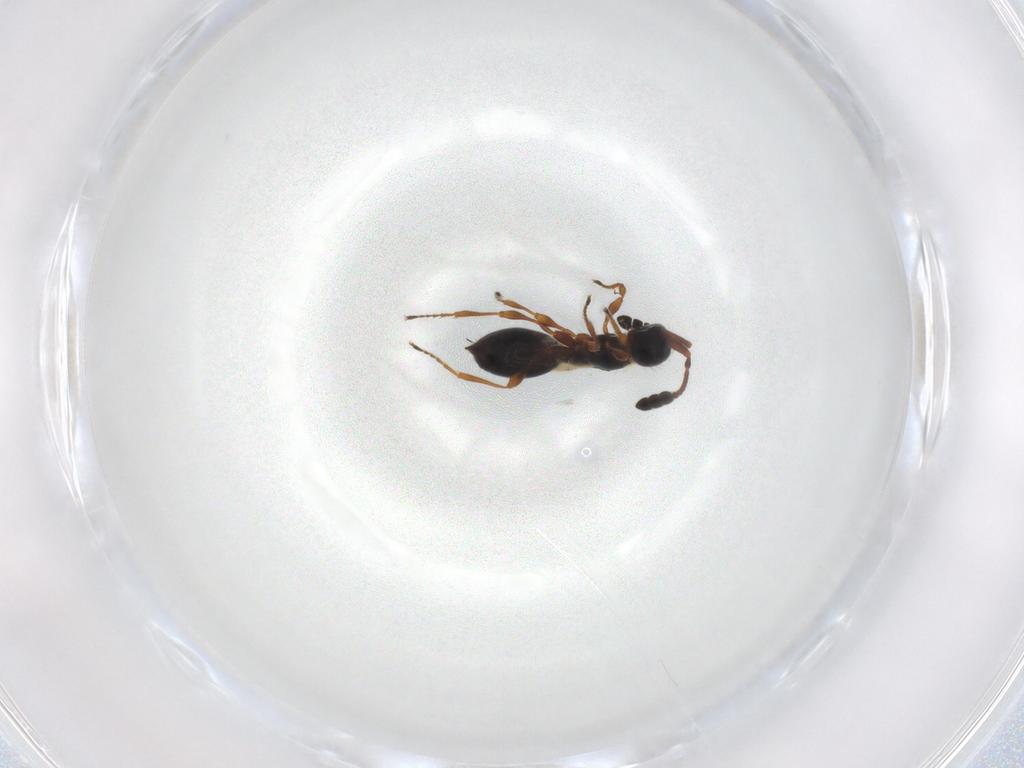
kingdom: Animalia
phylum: Arthropoda
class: Insecta
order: Hymenoptera
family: Diapriidae
